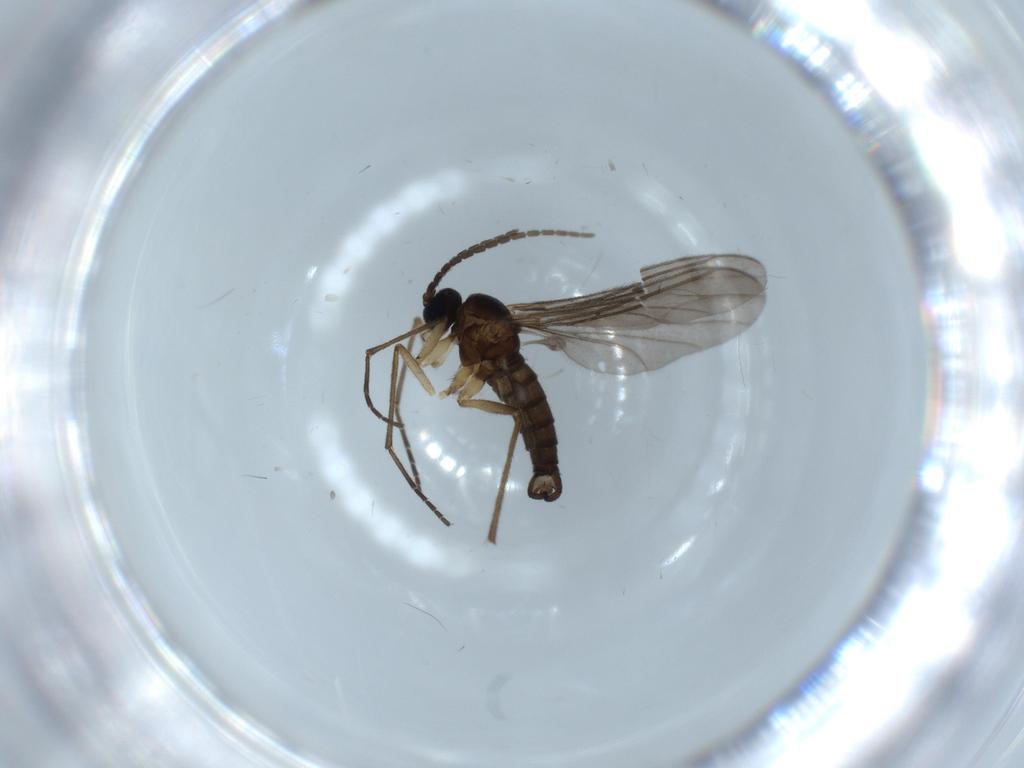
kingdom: Animalia
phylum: Arthropoda
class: Insecta
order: Diptera
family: Sciaridae
